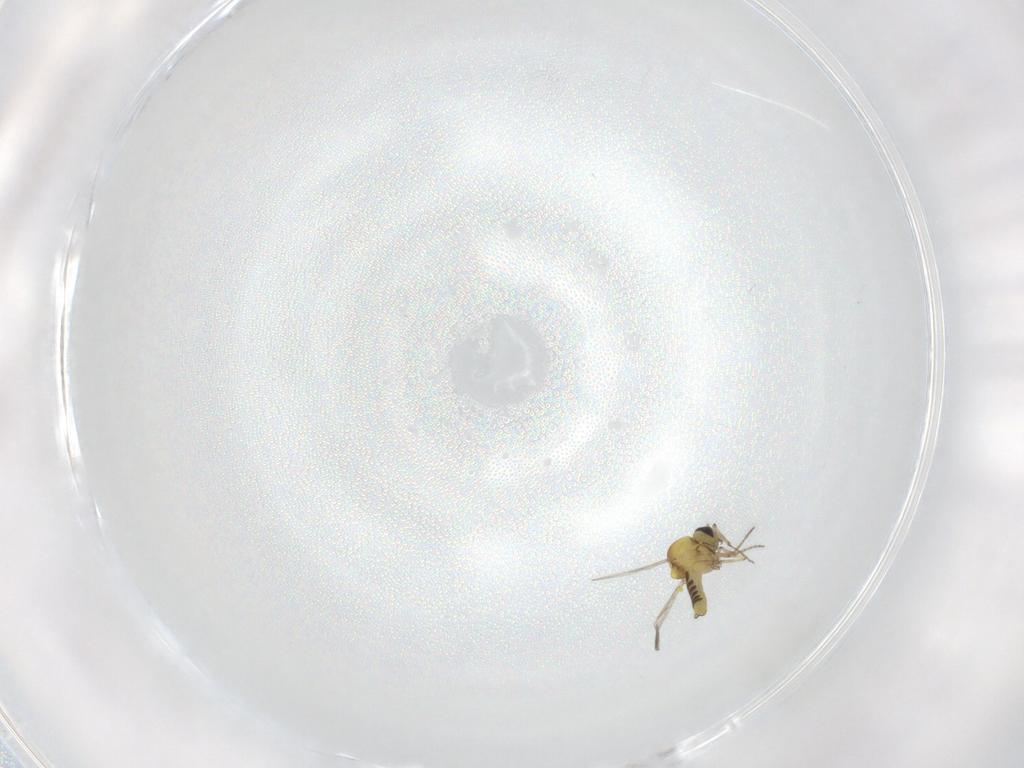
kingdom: Animalia
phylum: Arthropoda
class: Insecta
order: Diptera
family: Ceratopogonidae
